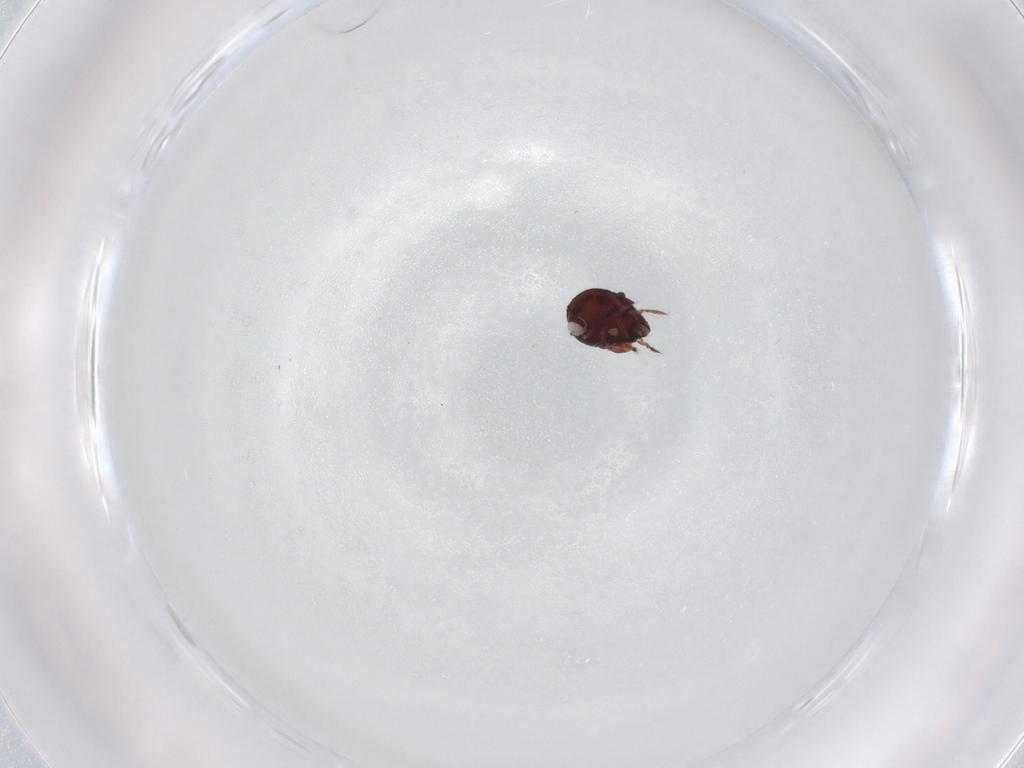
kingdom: Animalia
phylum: Arthropoda
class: Arachnida
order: Sarcoptiformes
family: Humerobatidae
